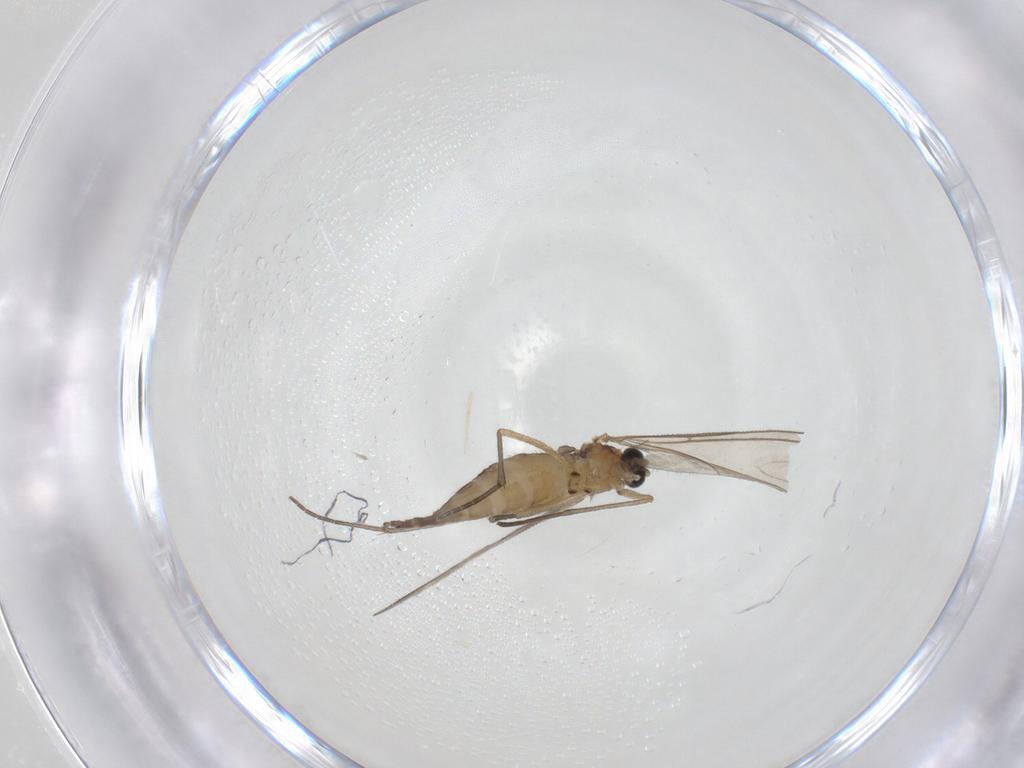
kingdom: Animalia
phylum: Arthropoda
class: Insecta
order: Diptera
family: Sciaridae
